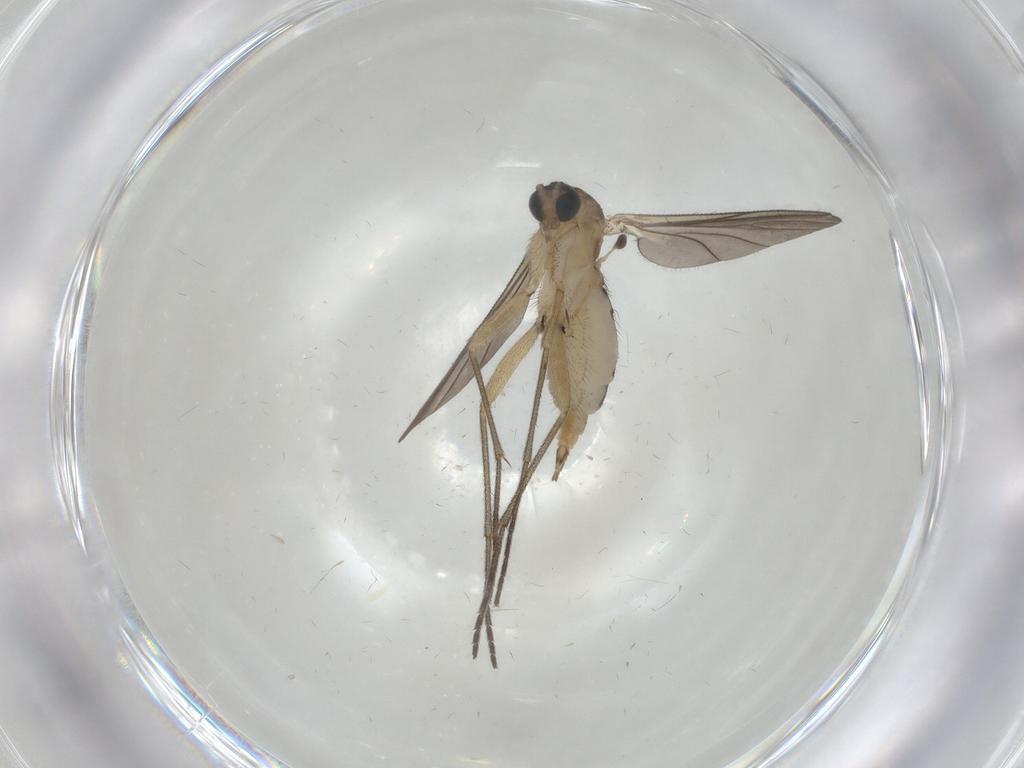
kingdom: Animalia
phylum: Arthropoda
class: Insecta
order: Diptera
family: Sciaridae
